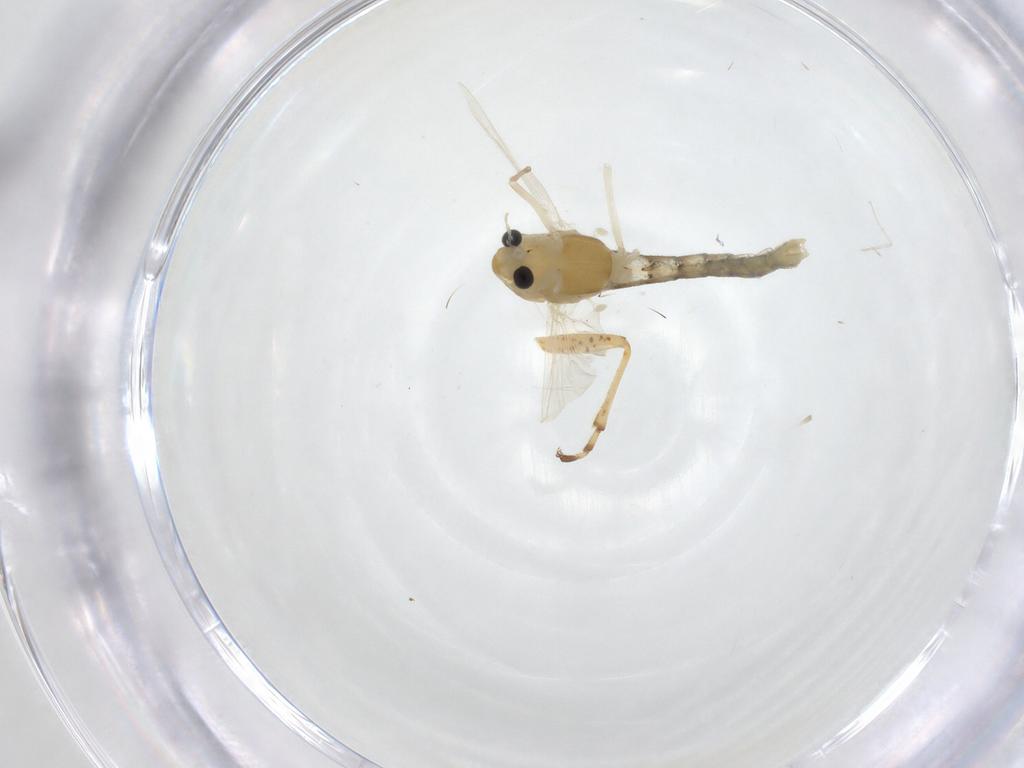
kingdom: Animalia
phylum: Arthropoda
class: Insecta
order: Diptera
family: Chironomidae
